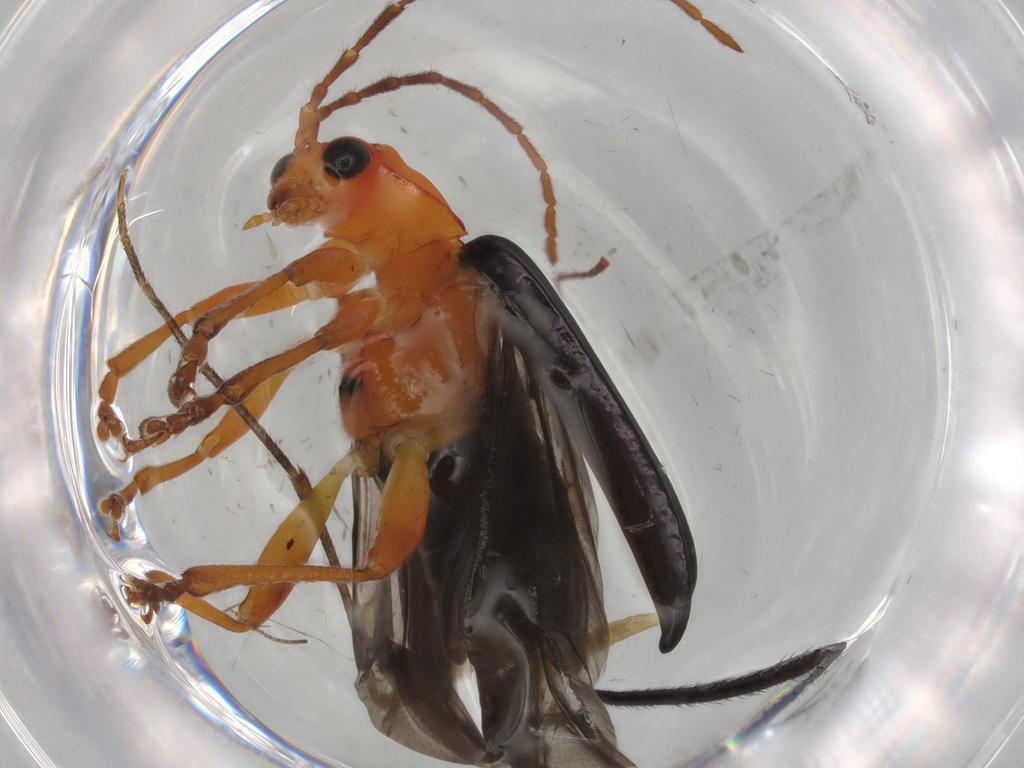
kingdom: Animalia
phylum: Arthropoda
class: Insecta
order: Coleoptera
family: Chrysomelidae
